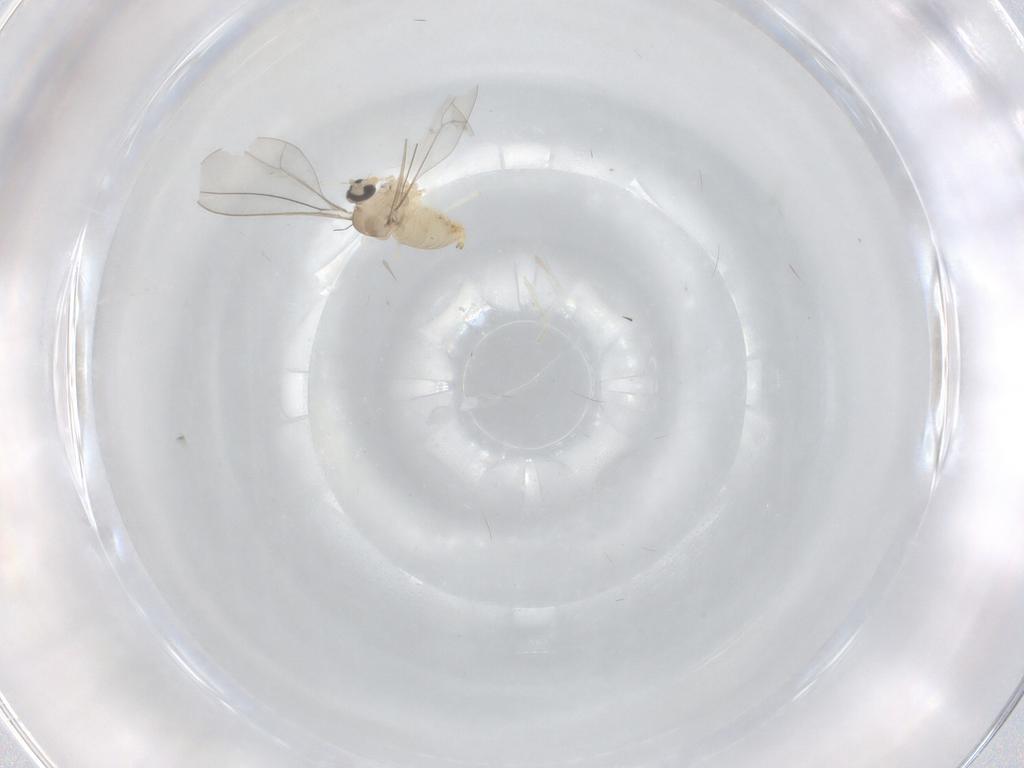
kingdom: Animalia
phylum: Arthropoda
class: Insecta
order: Diptera
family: Cecidomyiidae
